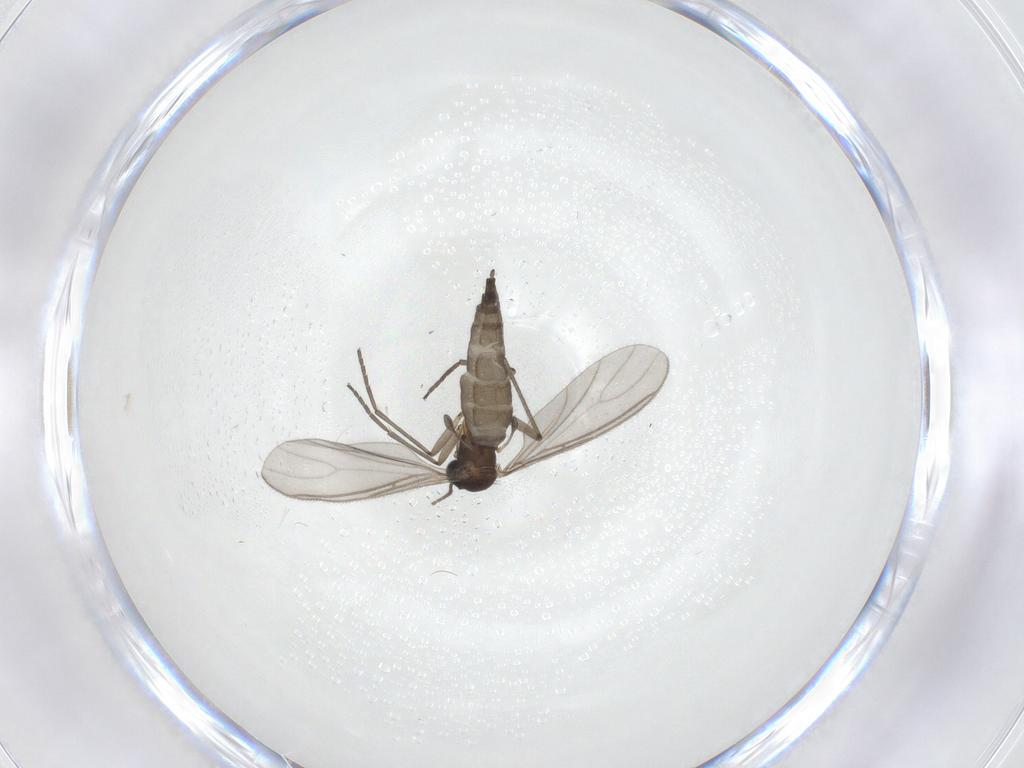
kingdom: Animalia
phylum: Arthropoda
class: Insecta
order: Diptera
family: Sciaridae
